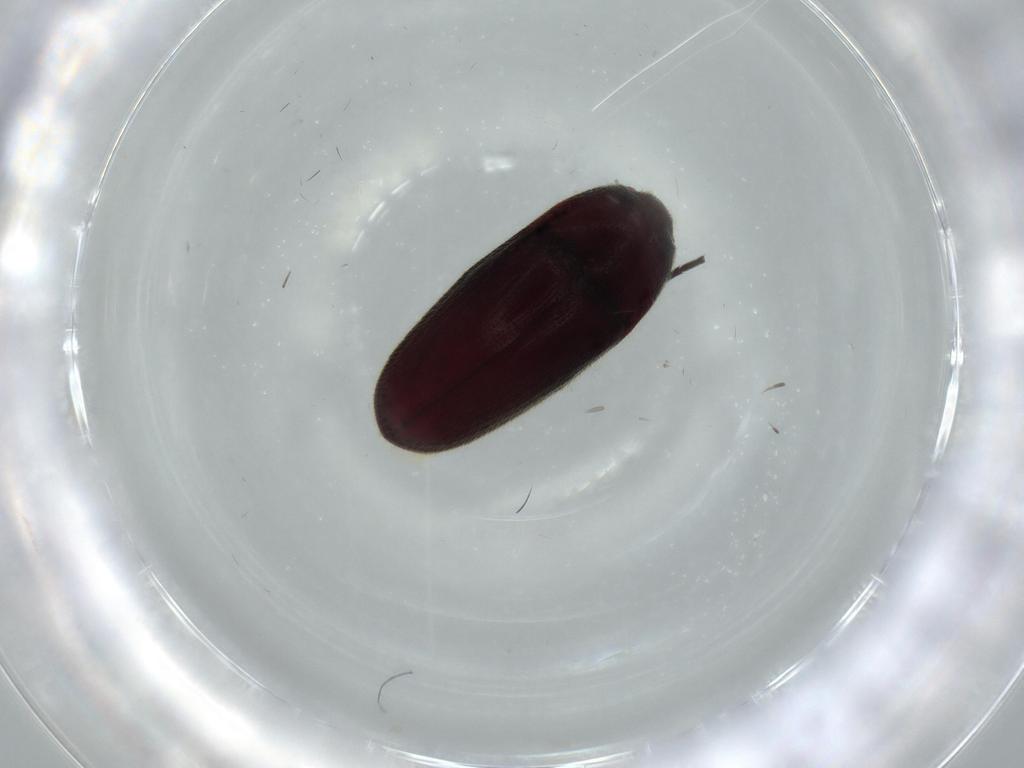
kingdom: Animalia
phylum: Arthropoda
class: Insecta
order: Coleoptera
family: Throscidae
